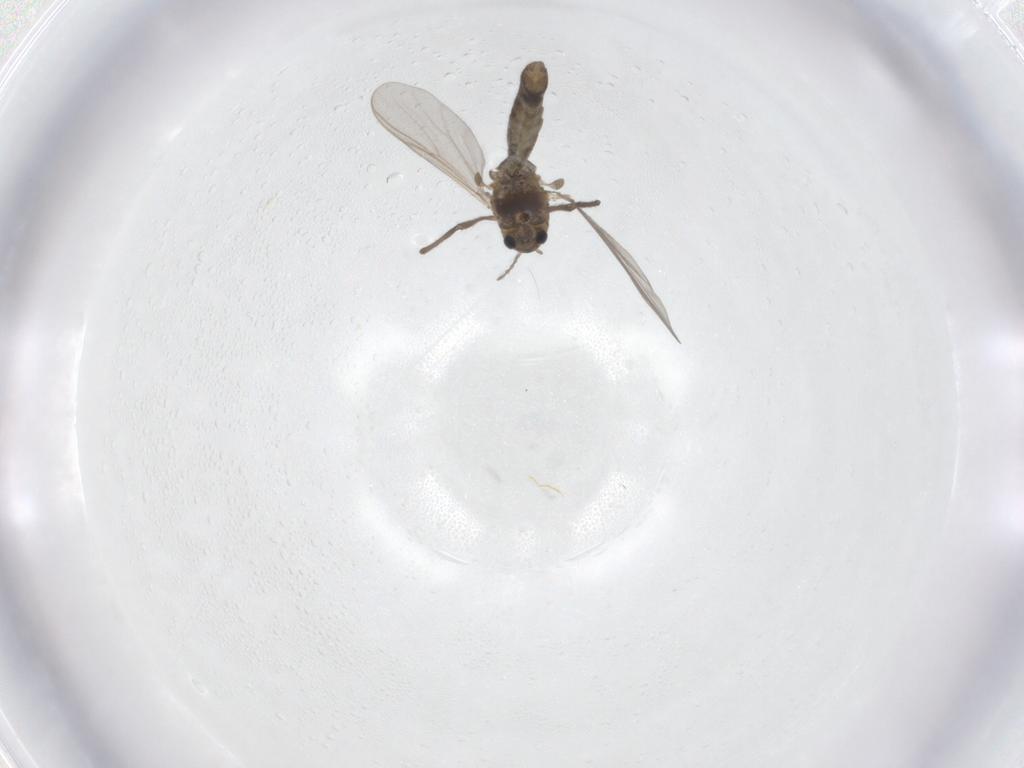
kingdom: Animalia
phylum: Arthropoda
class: Insecta
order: Diptera
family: Chironomidae
